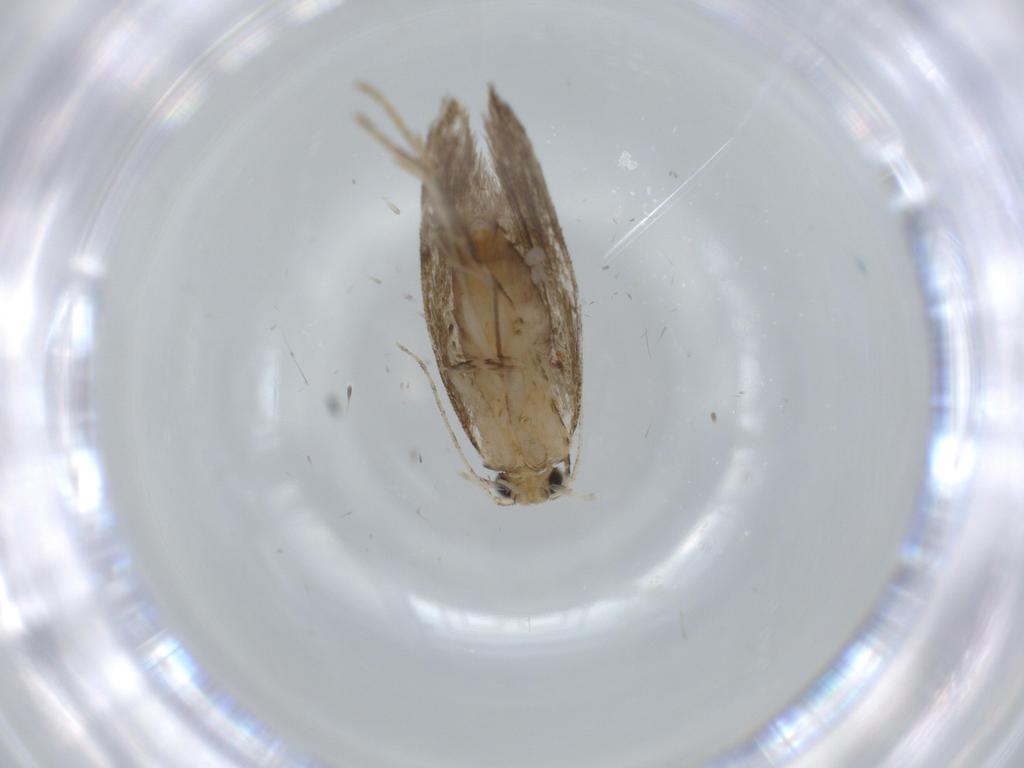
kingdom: Animalia
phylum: Arthropoda
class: Insecta
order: Lepidoptera
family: Tineidae
